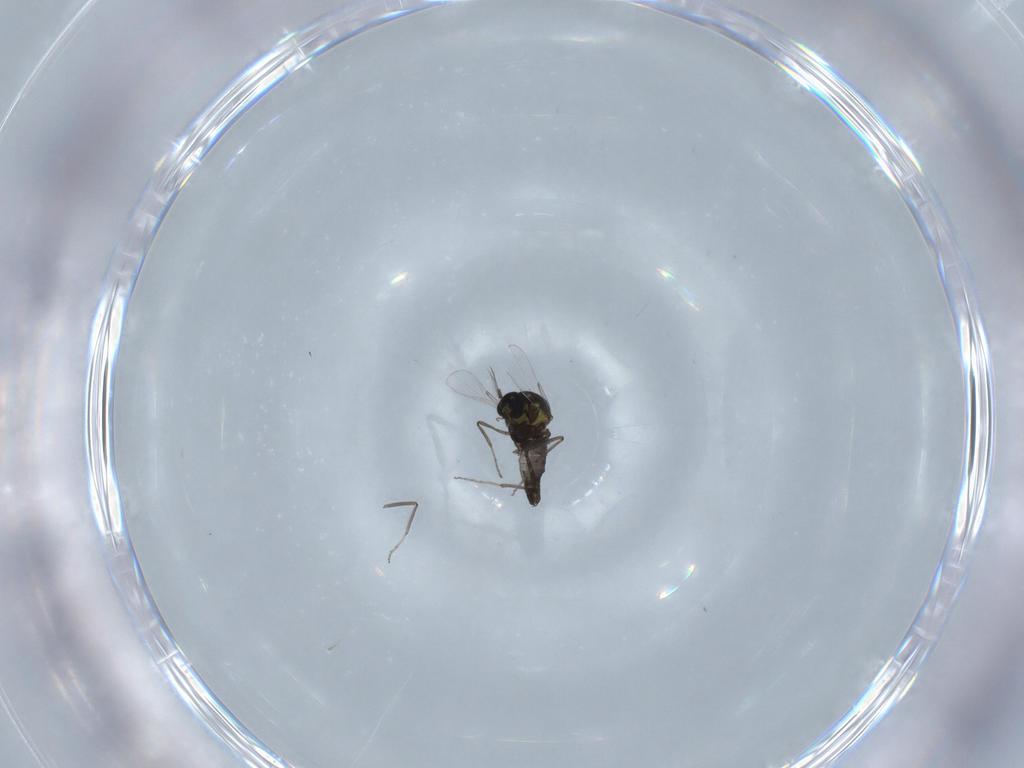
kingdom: Animalia
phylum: Arthropoda
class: Insecta
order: Diptera
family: Ceratopogonidae
